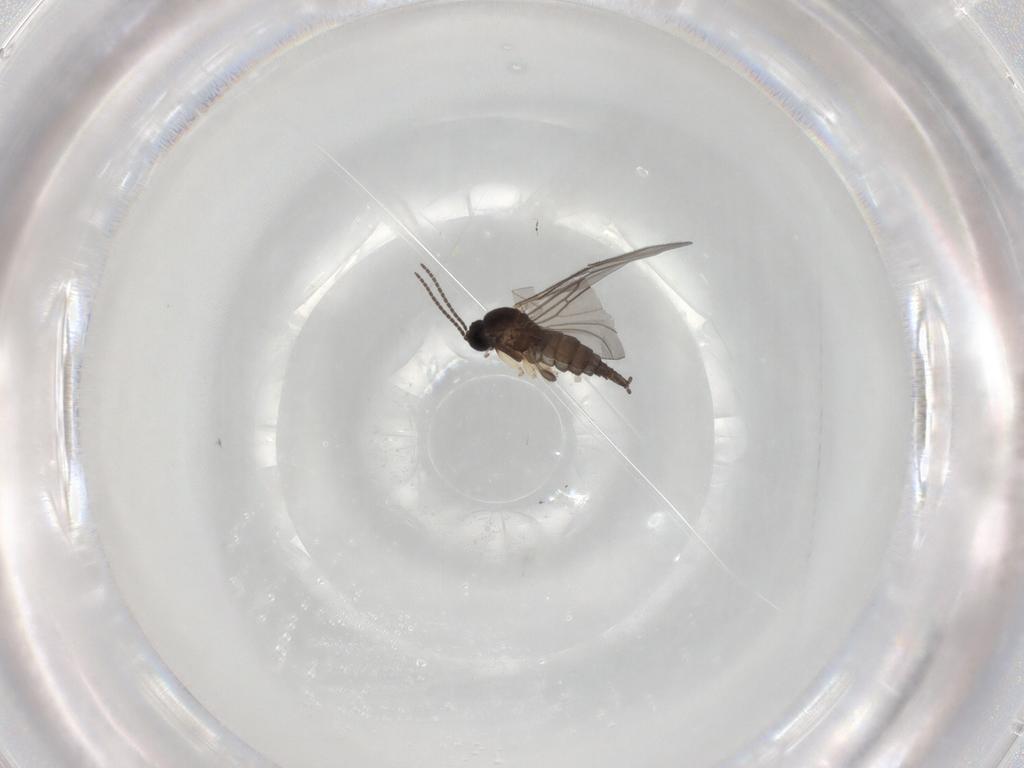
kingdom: Animalia
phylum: Arthropoda
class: Insecta
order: Diptera
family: Sciaridae
